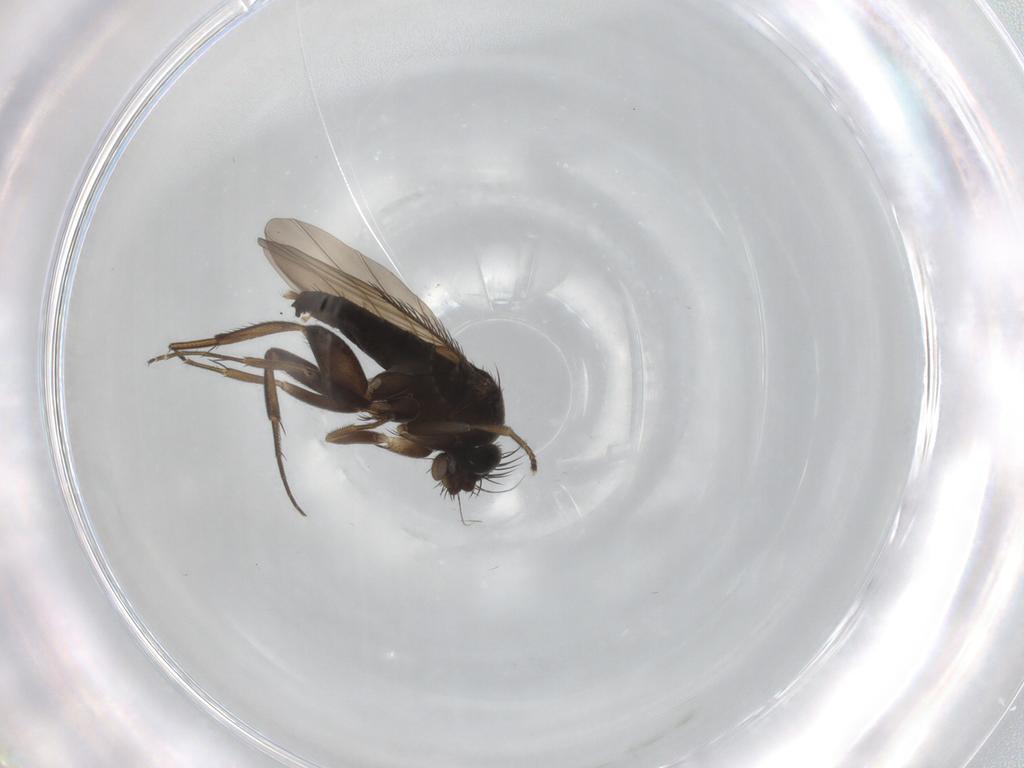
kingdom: Animalia
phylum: Arthropoda
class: Insecta
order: Diptera
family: Phoridae
